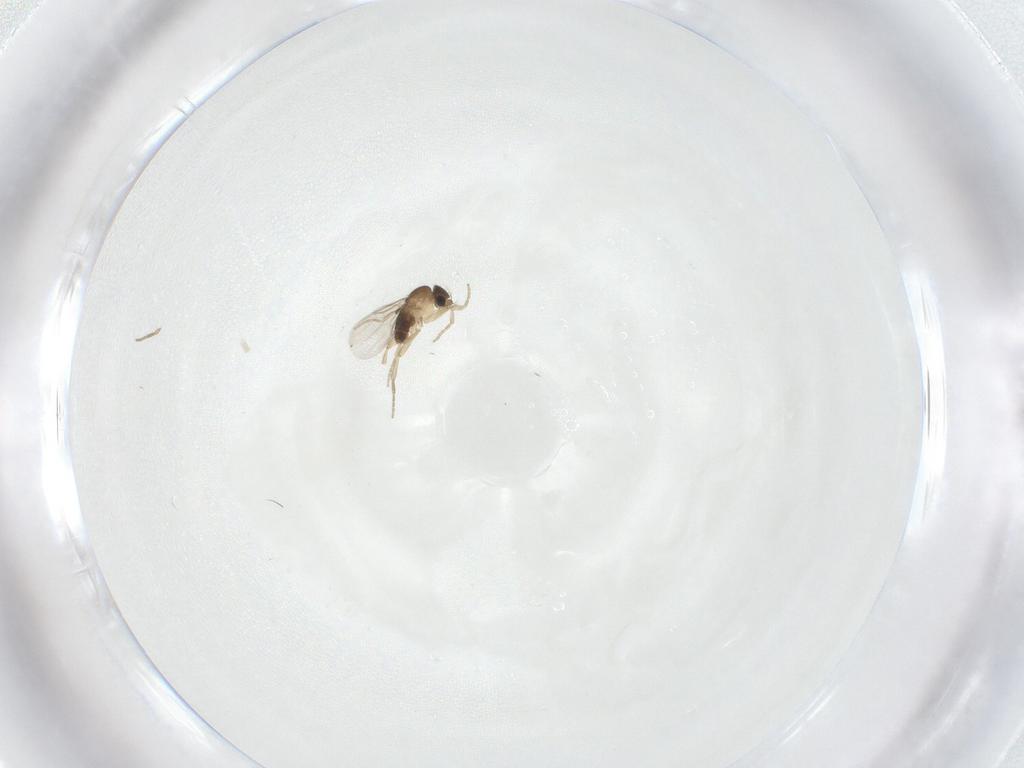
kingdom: Animalia
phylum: Arthropoda
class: Insecta
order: Diptera
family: Phoridae
